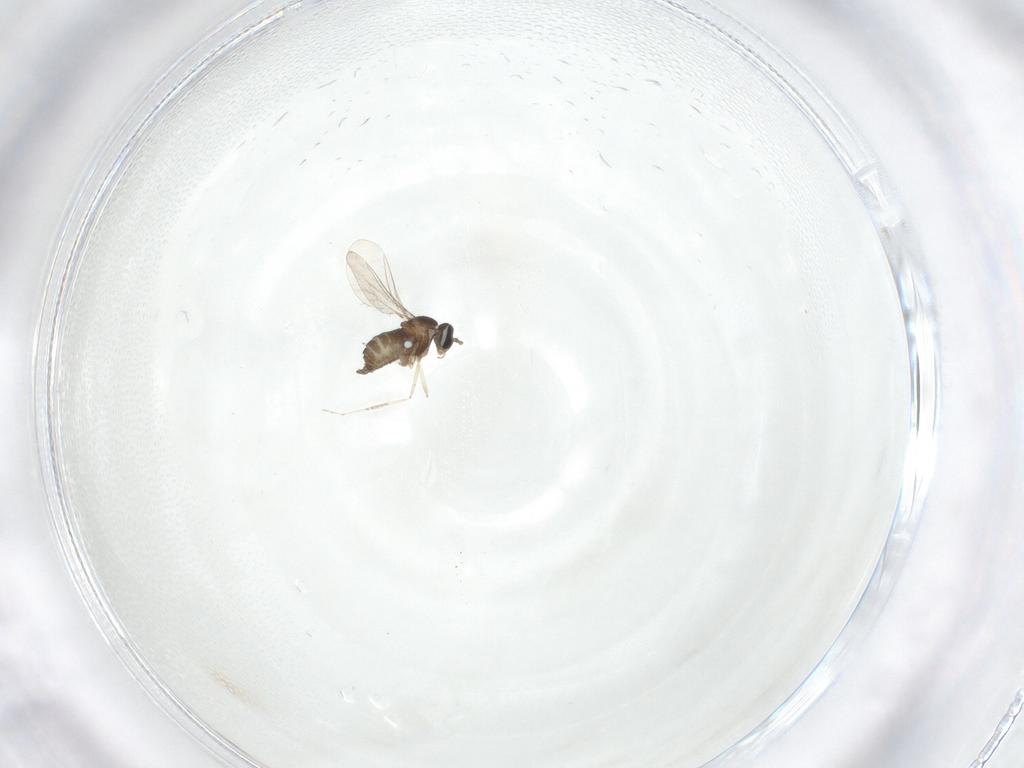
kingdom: Animalia
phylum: Arthropoda
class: Insecta
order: Diptera
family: Cecidomyiidae
